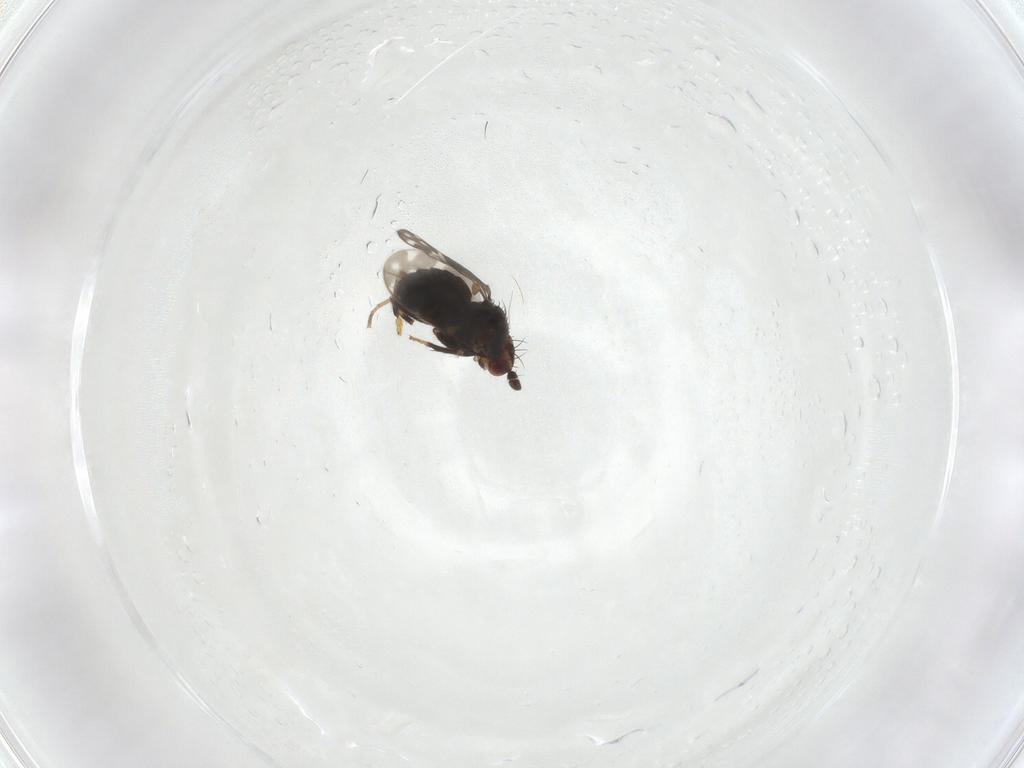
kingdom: Animalia
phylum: Arthropoda
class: Insecta
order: Diptera
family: Sphaeroceridae
